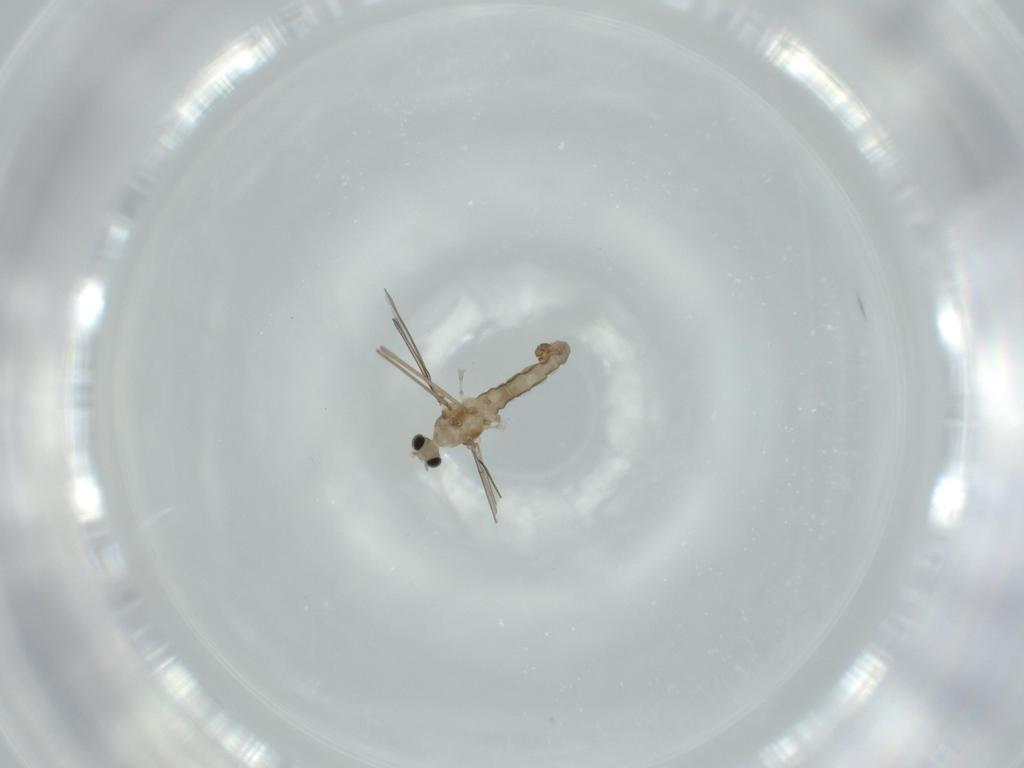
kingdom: Animalia
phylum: Arthropoda
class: Insecta
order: Diptera
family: Cecidomyiidae
